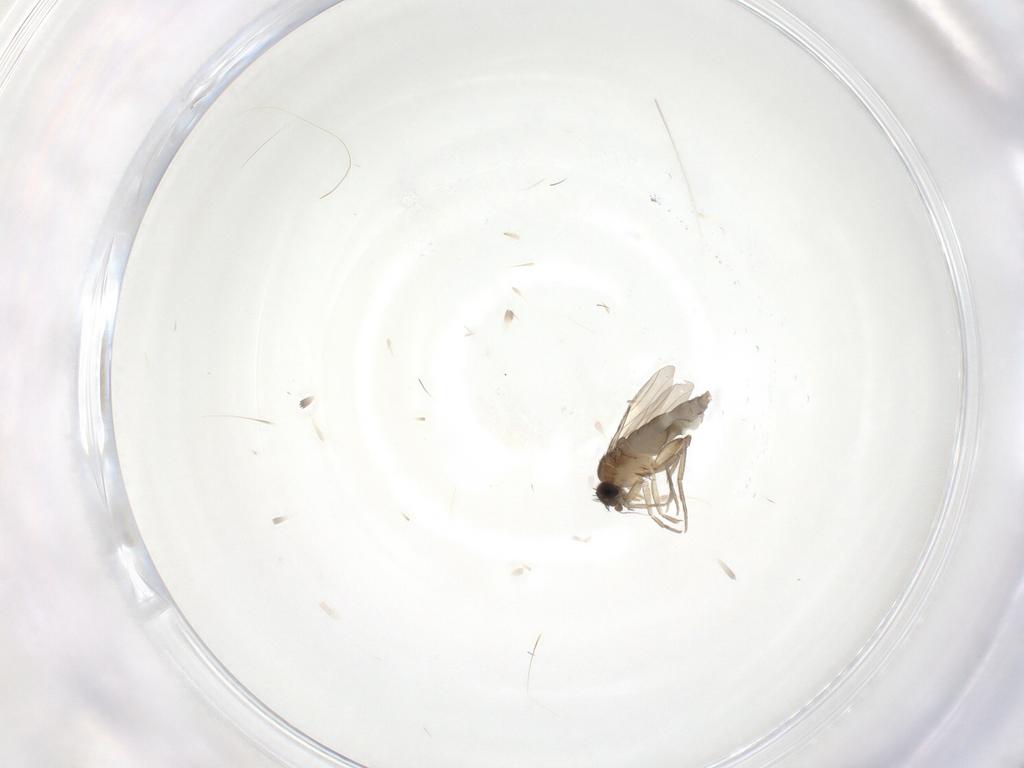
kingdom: Animalia
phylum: Arthropoda
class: Insecta
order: Diptera
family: Phoridae
